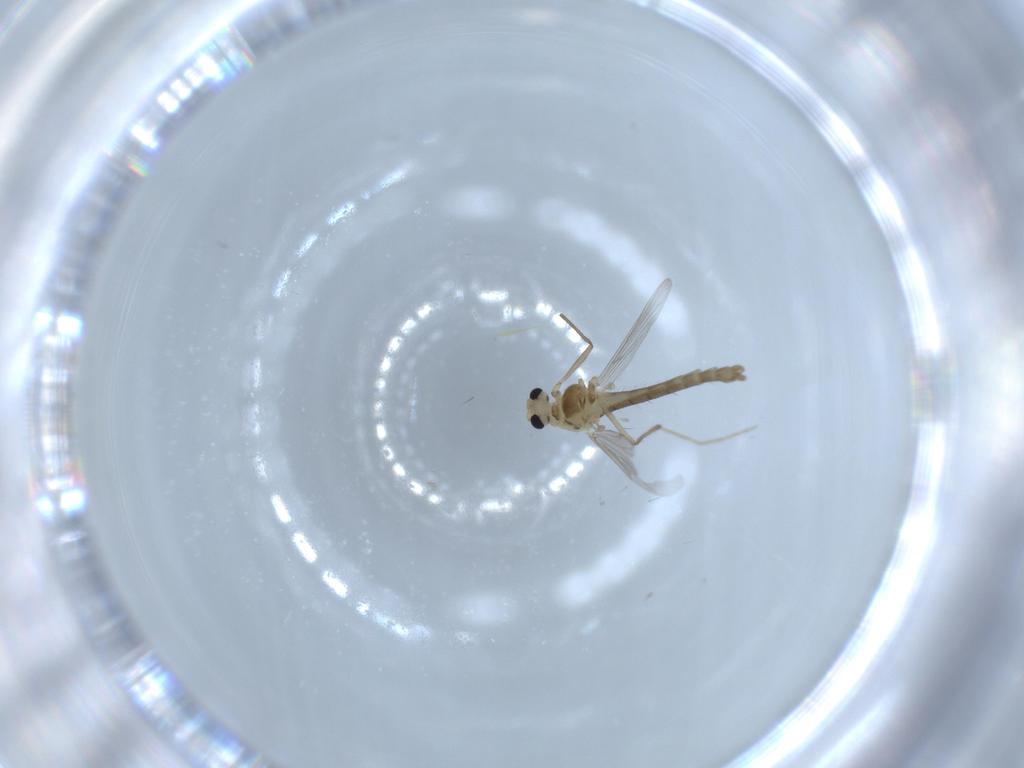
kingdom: Animalia
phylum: Arthropoda
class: Insecta
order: Diptera
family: Chironomidae
